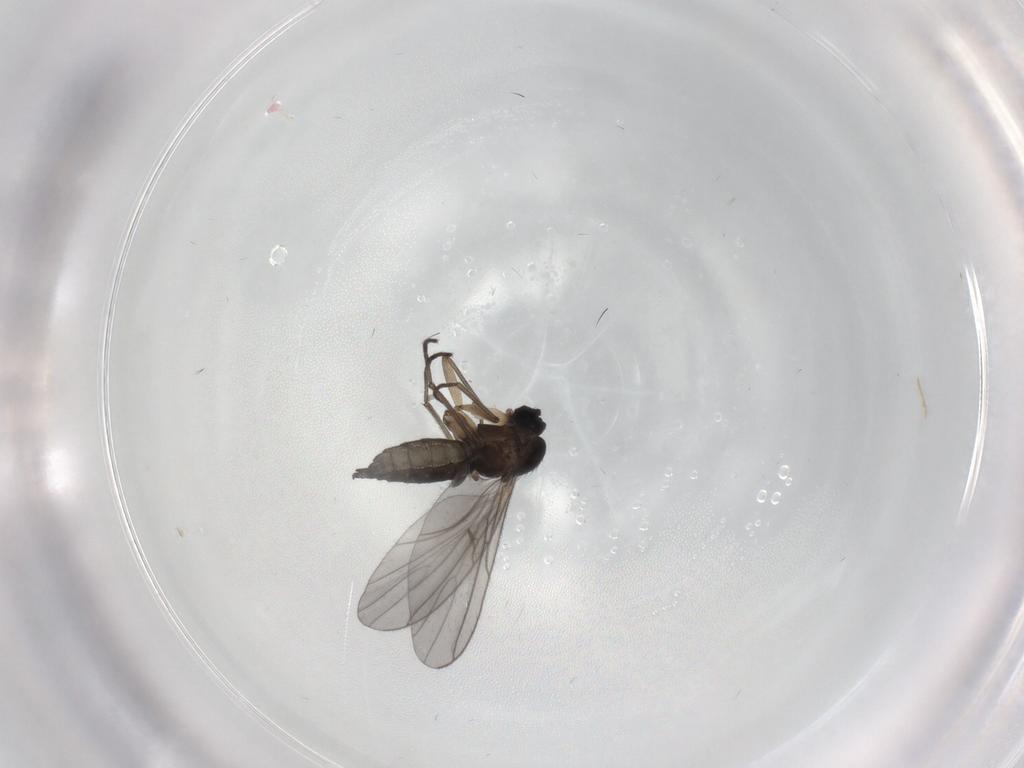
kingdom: Animalia
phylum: Arthropoda
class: Insecta
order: Diptera
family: Sciaridae
